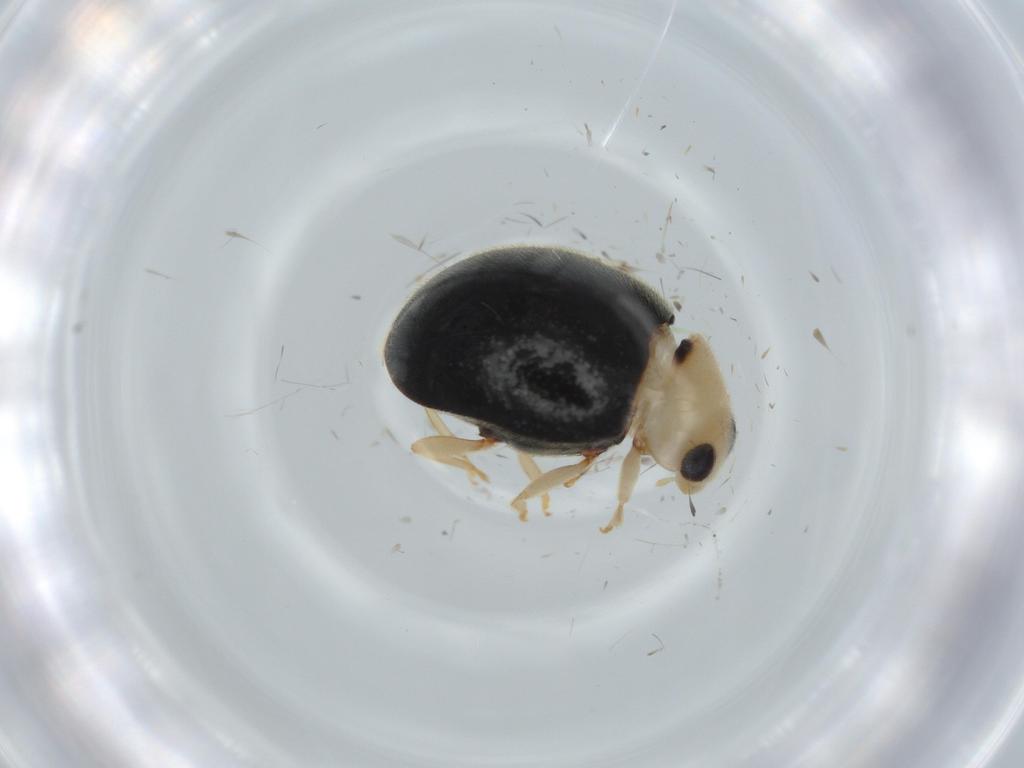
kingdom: Animalia
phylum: Arthropoda
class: Insecta
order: Coleoptera
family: Coccinellidae
